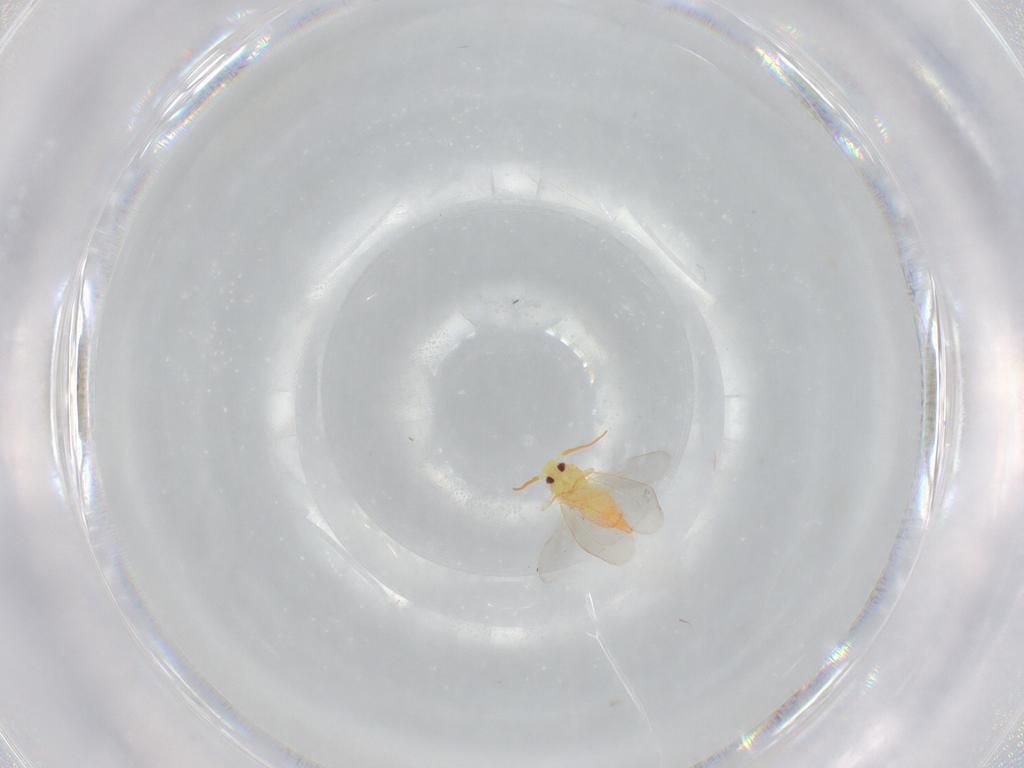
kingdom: Animalia
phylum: Arthropoda
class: Insecta
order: Hemiptera
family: Aleyrodidae
